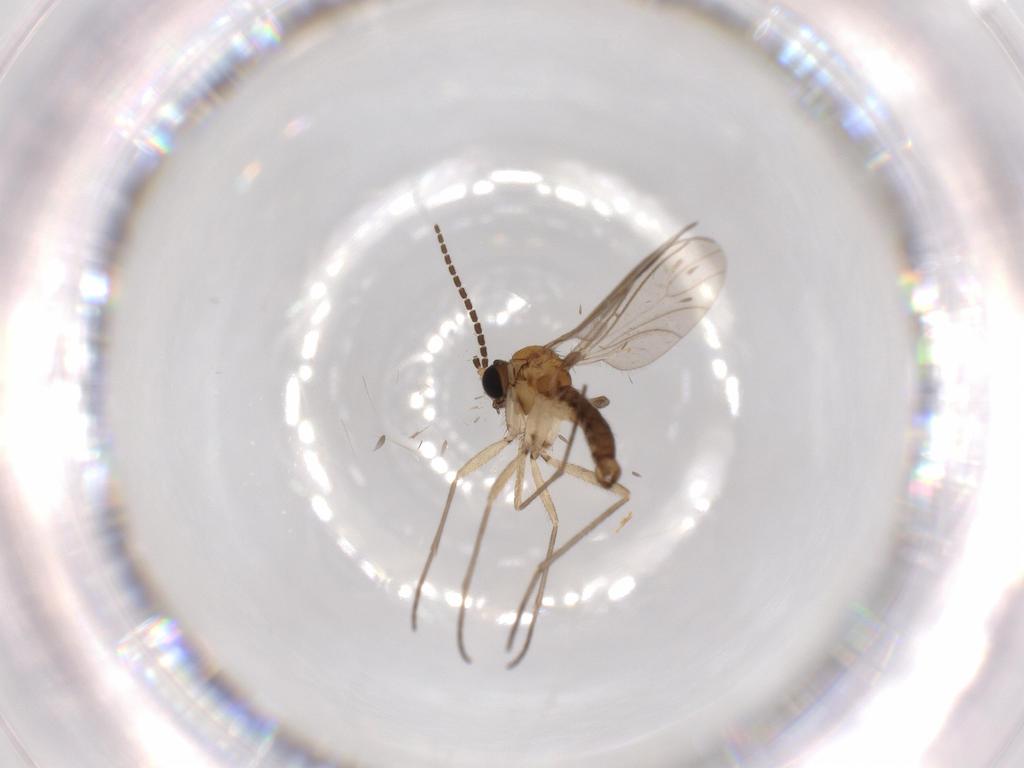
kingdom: Animalia
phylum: Arthropoda
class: Insecta
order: Diptera
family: Sciaridae
